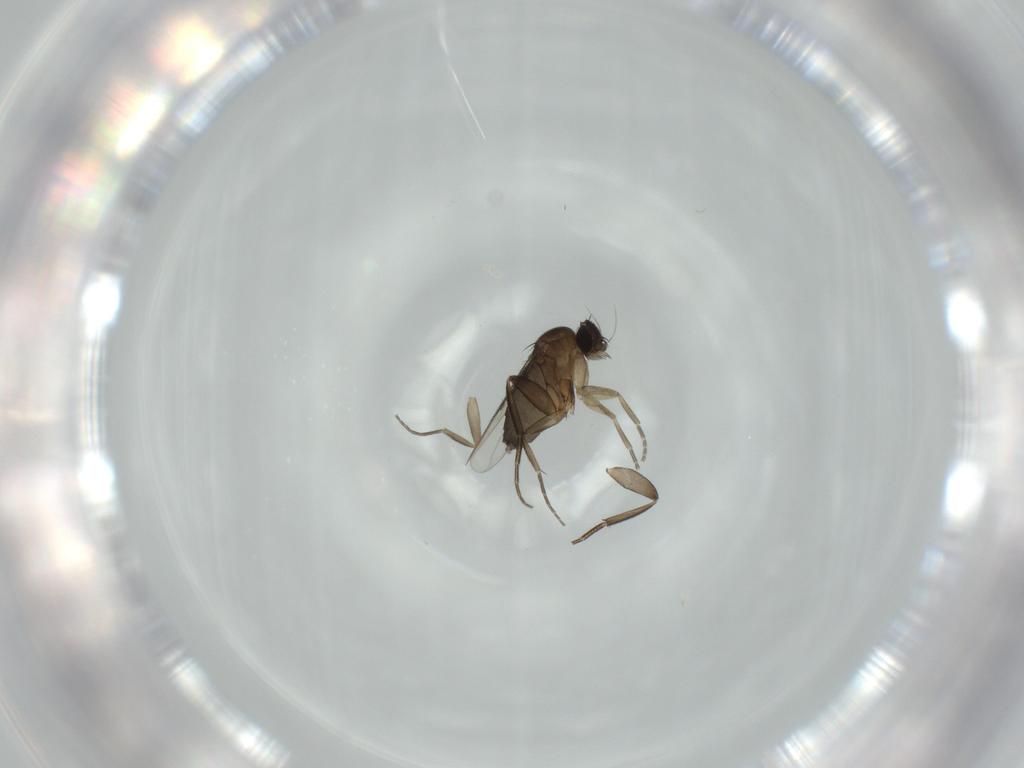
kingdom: Animalia
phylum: Arthropoda
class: Insecta
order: Diptera
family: Phoridae
